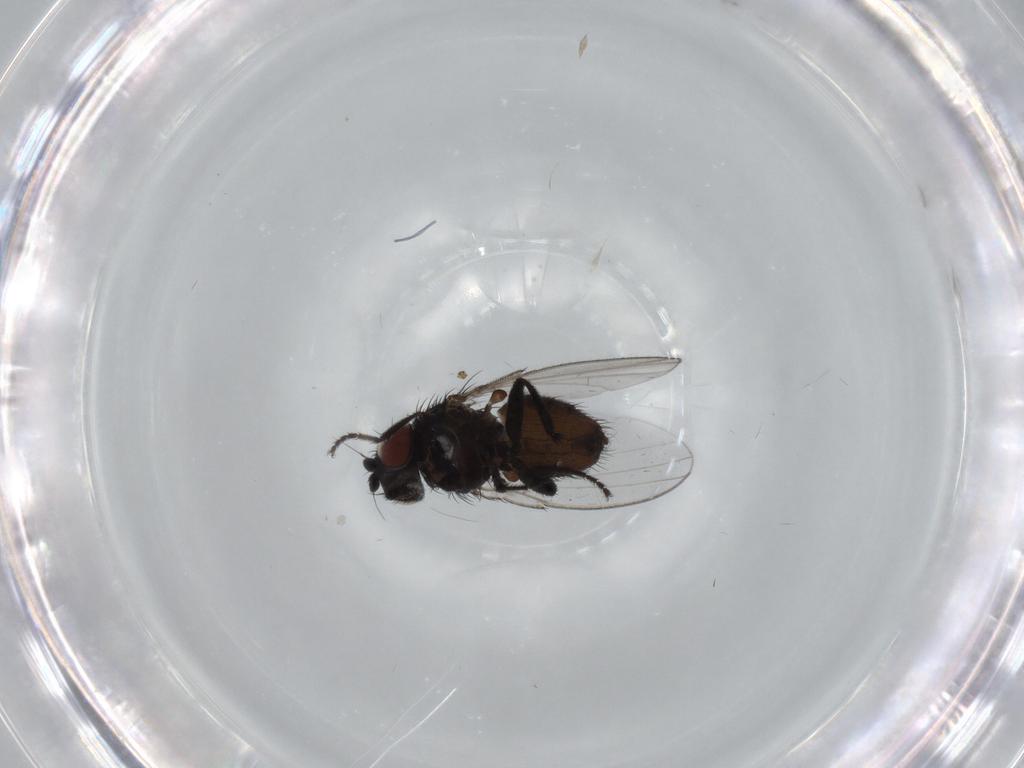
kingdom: Animalia
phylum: Arthropoda
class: Insecta
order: Diptera
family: Milichiidae
